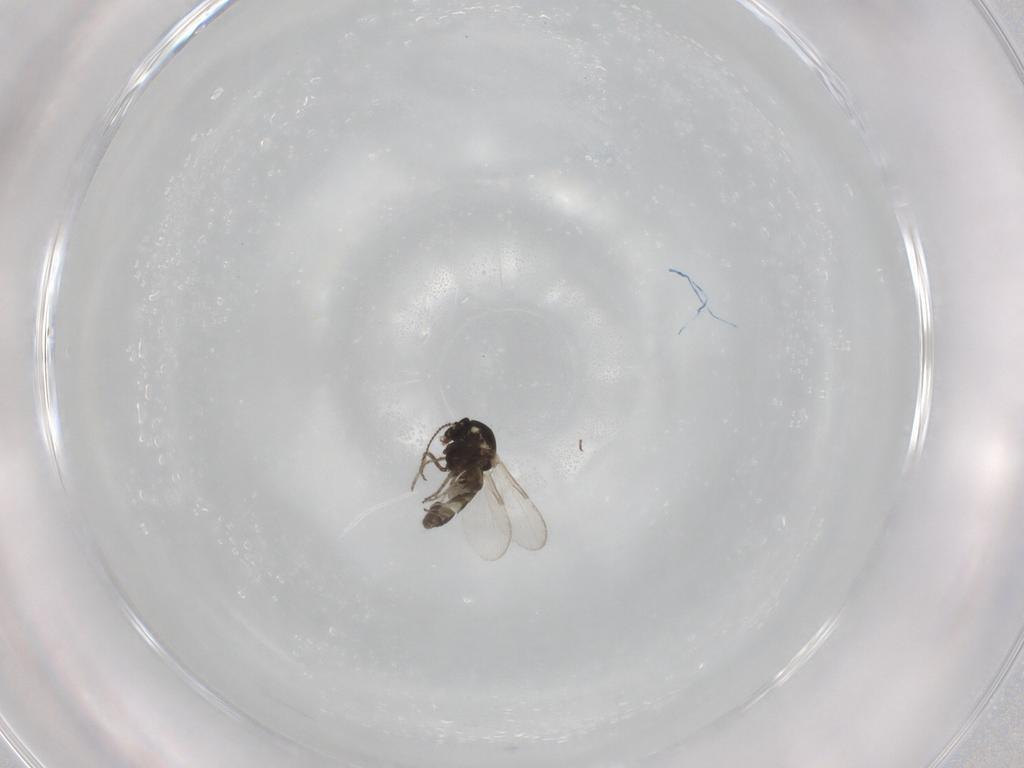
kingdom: Animalia
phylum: Arthropoda
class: Insecta
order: Diptera
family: Ceratopogonidae
